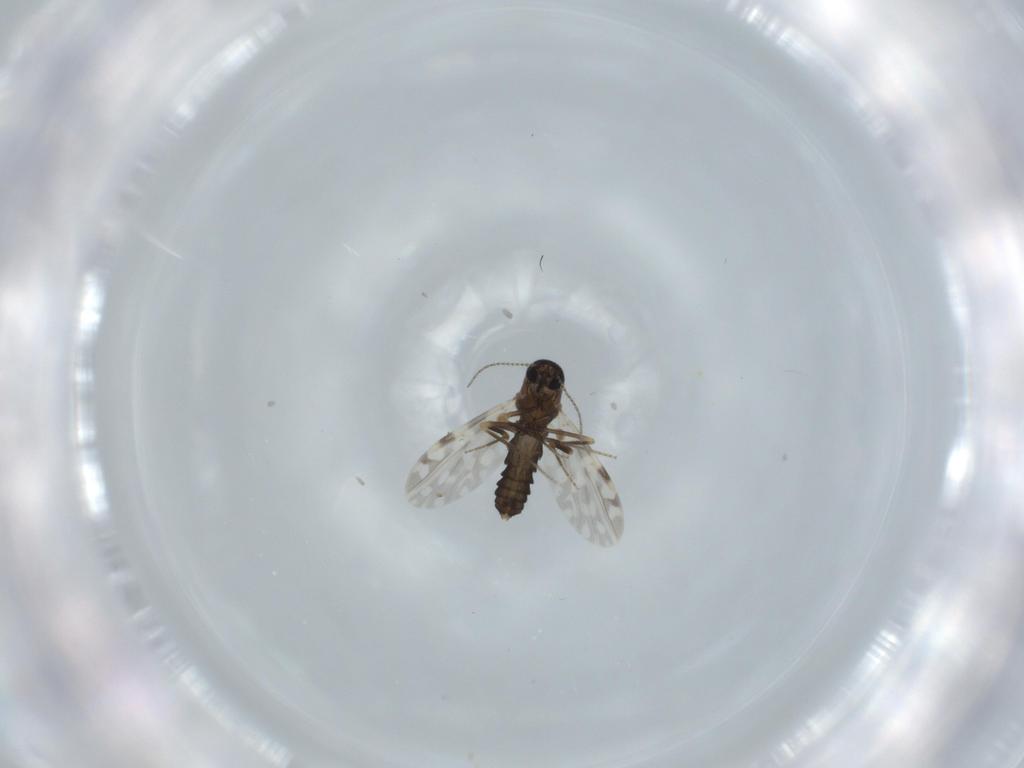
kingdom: Animalia
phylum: Arthropoda
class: Insecta
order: Diptera
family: Ceratopogonidae
